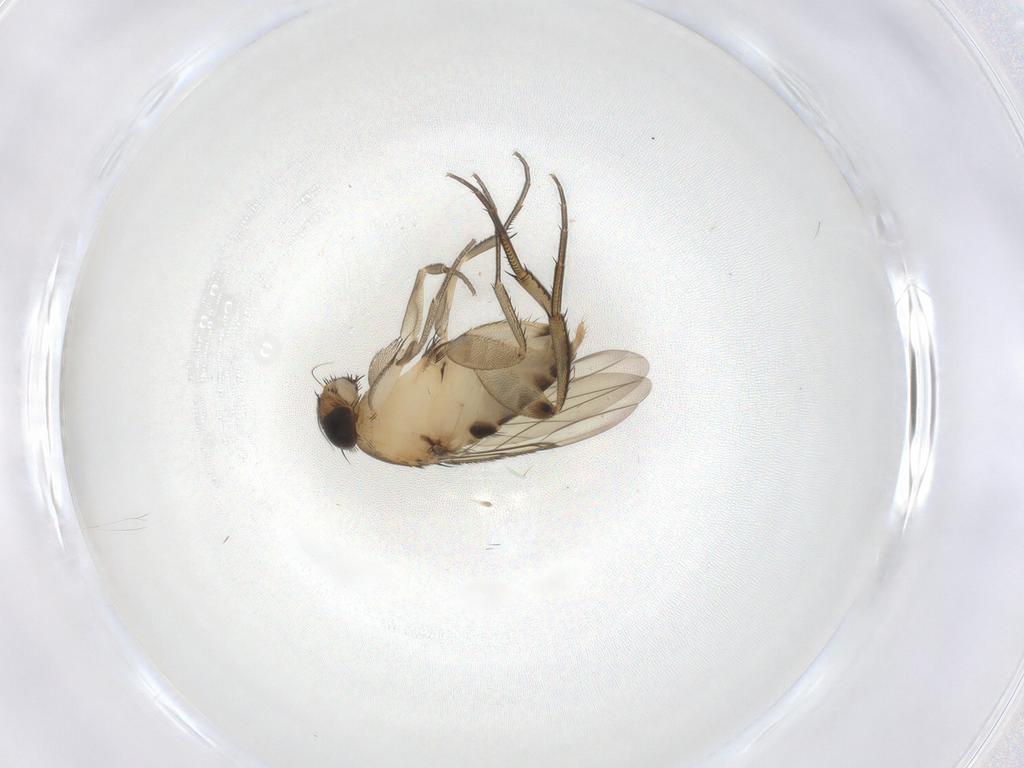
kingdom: Animalia
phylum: Arthropoda
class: Insecta
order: Diptera
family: Phoridae
